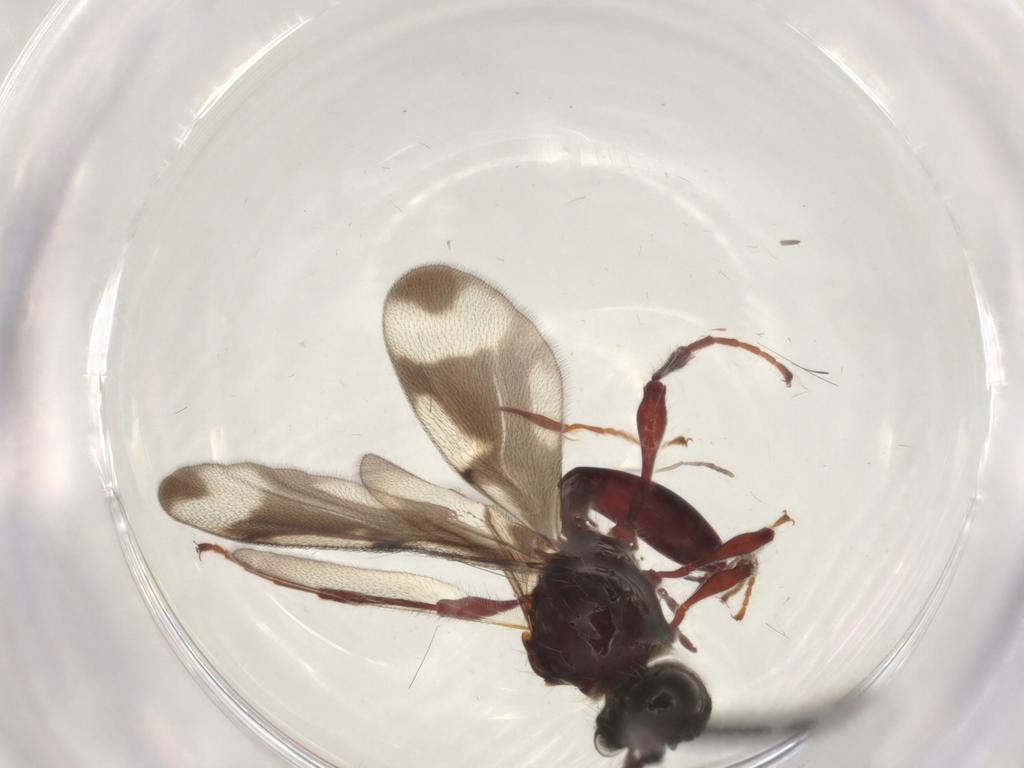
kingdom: Animalia
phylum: Arthropoda
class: Insecta
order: Hymenoptera
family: Diapriidae
